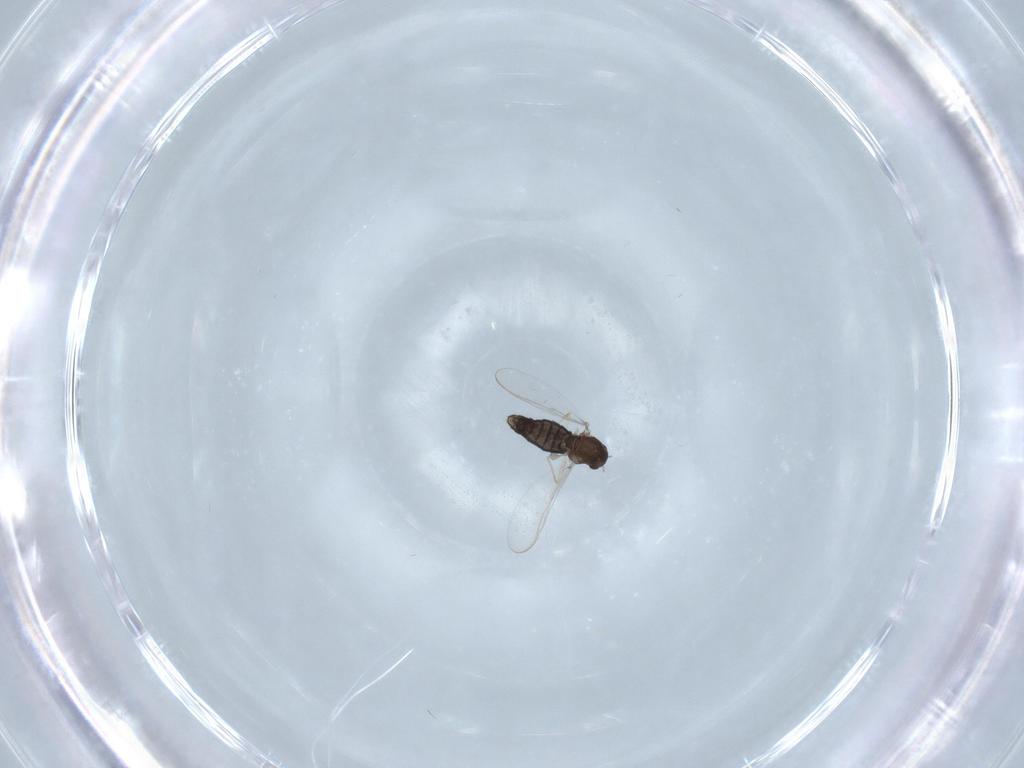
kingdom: Animalia
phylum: Arthropoda
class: Insecta
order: Diptera
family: Chironomidae
